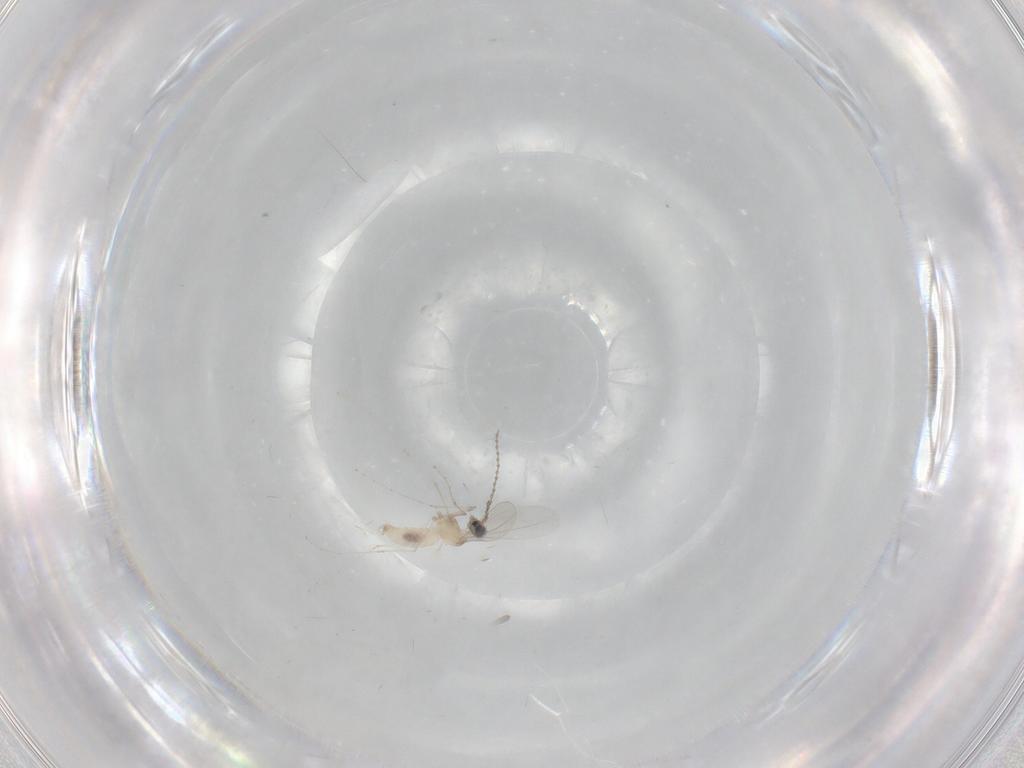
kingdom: Animalia
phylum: Arthropoda
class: Insecta
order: Diptera
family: Cecidomyiidae
